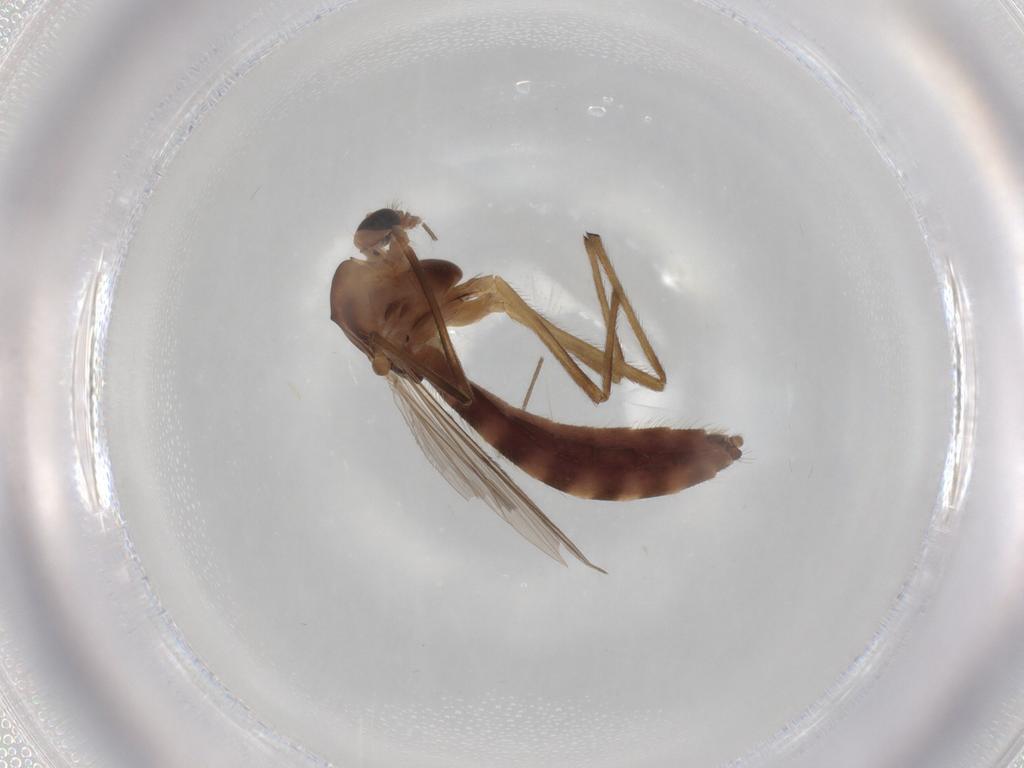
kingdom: Animalia
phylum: Arthropoda
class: Insecta
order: Diptera
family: Chironomidae
